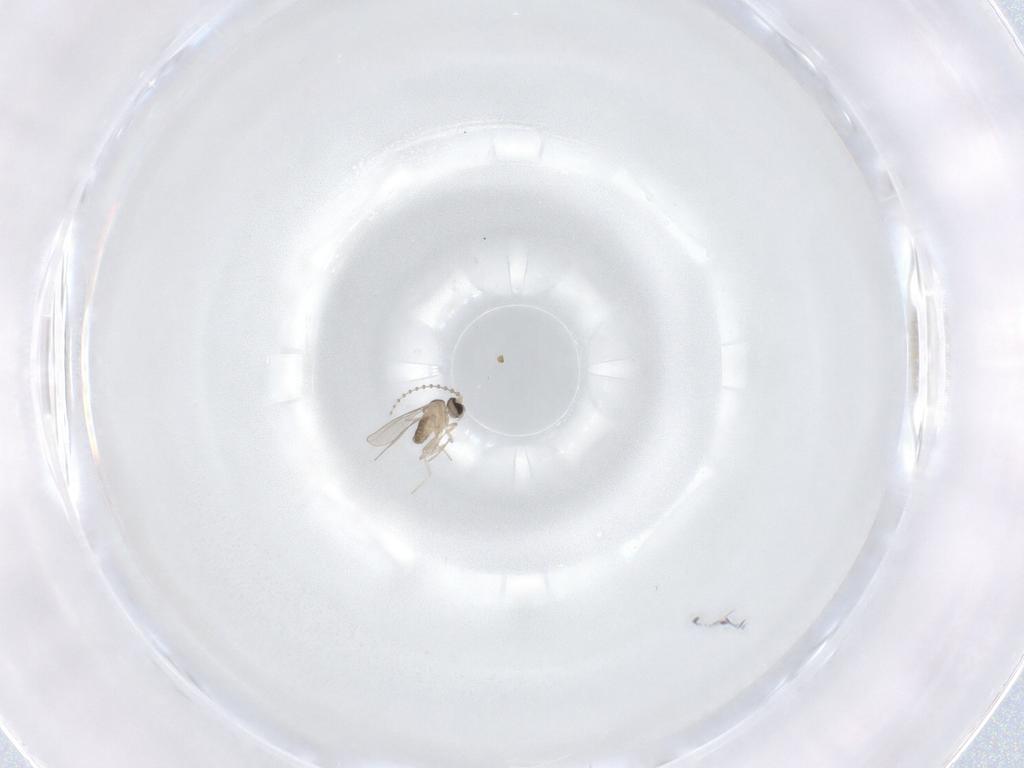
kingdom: Animalia
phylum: Arthropoda
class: Insecta
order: Diptera
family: Cecidomyiidae
